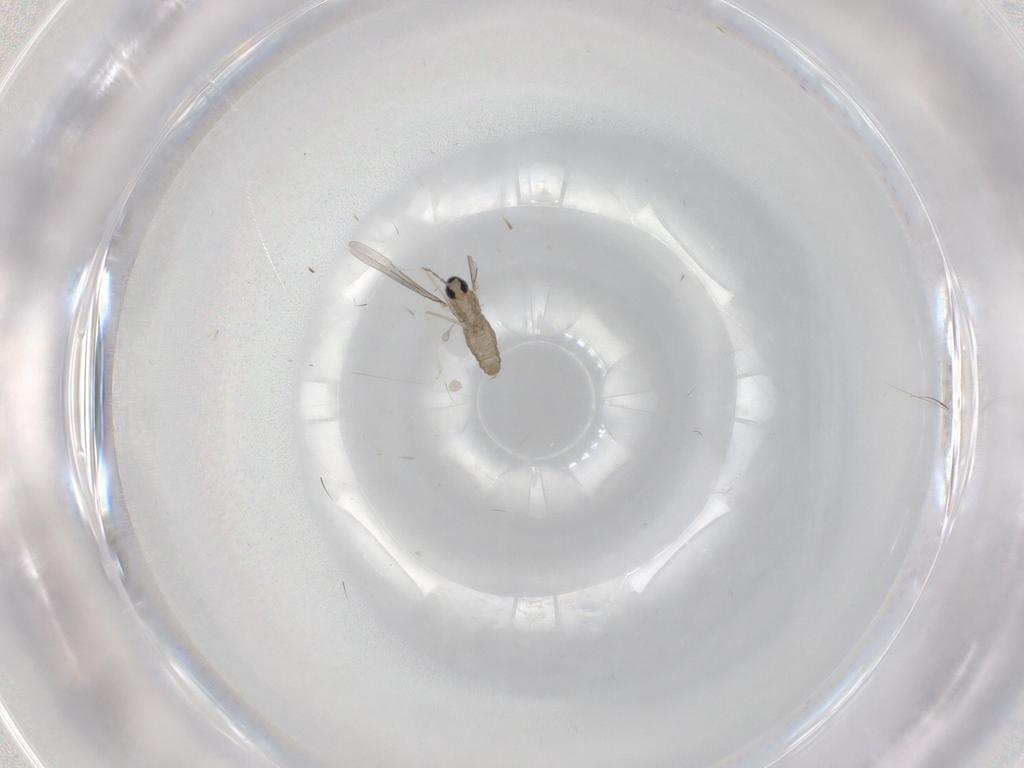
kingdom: Animalia
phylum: Arthropoda
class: Insecta
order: Diptera
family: Cecidomyiidae
